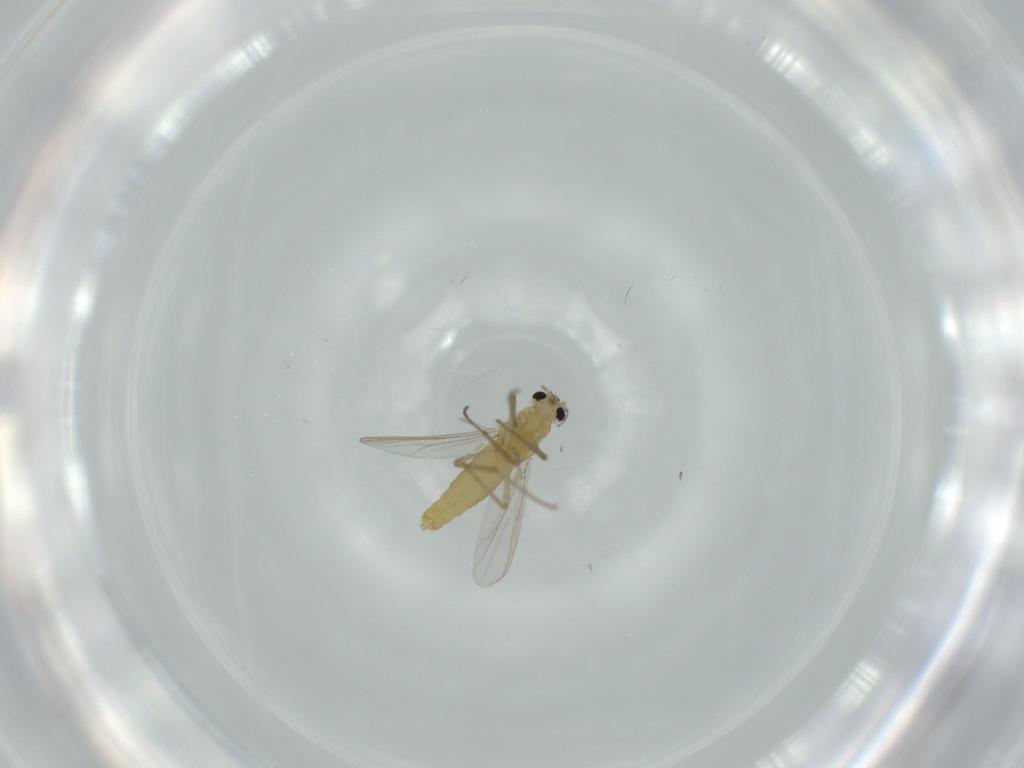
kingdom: Animalia
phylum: Arthropoda
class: Insecta
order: Diptera
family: Chironomidae
